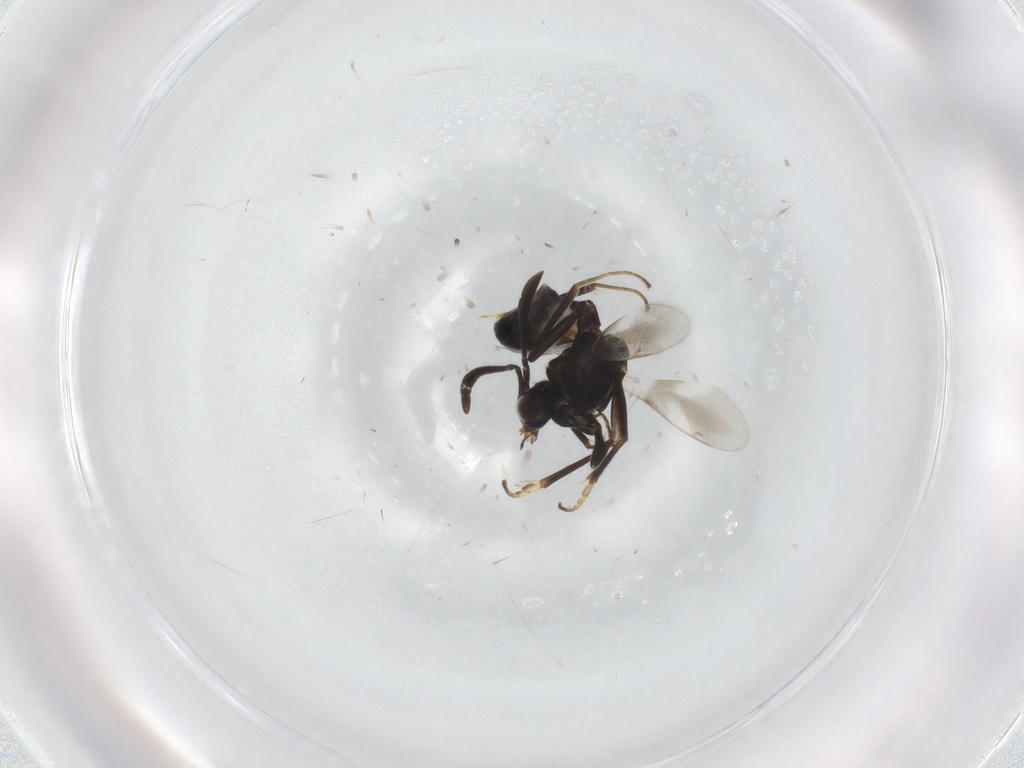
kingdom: Animalia
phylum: Arthropoda
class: Insecta
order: Hymenoptera
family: Eupelmidae
